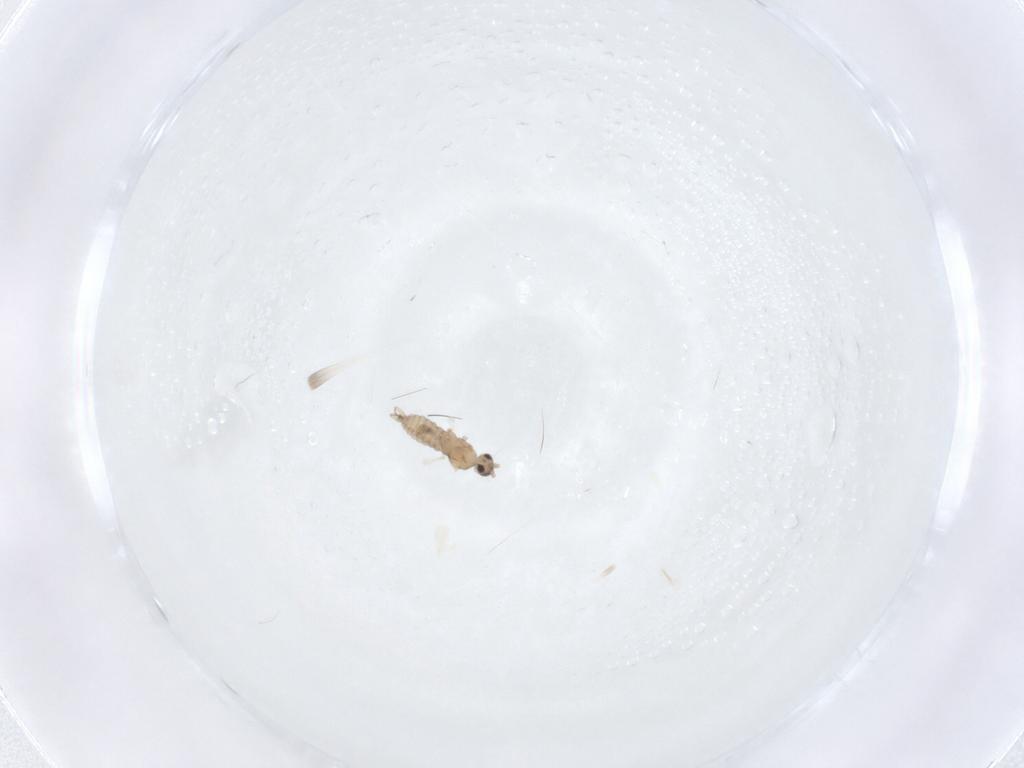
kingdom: Animalia
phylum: Arthropoda
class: Insecta
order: Diptera
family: Cecidomyiidae
